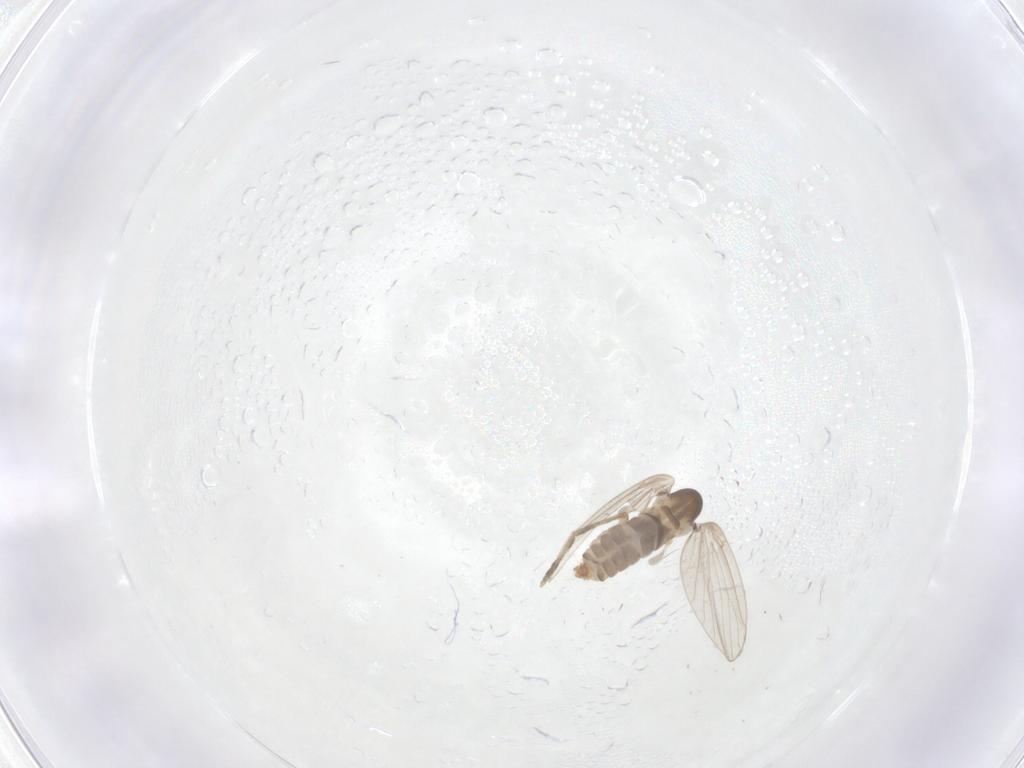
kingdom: Animalia
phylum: Arthropoda
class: Insecta
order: Diptera
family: Psychodidae
